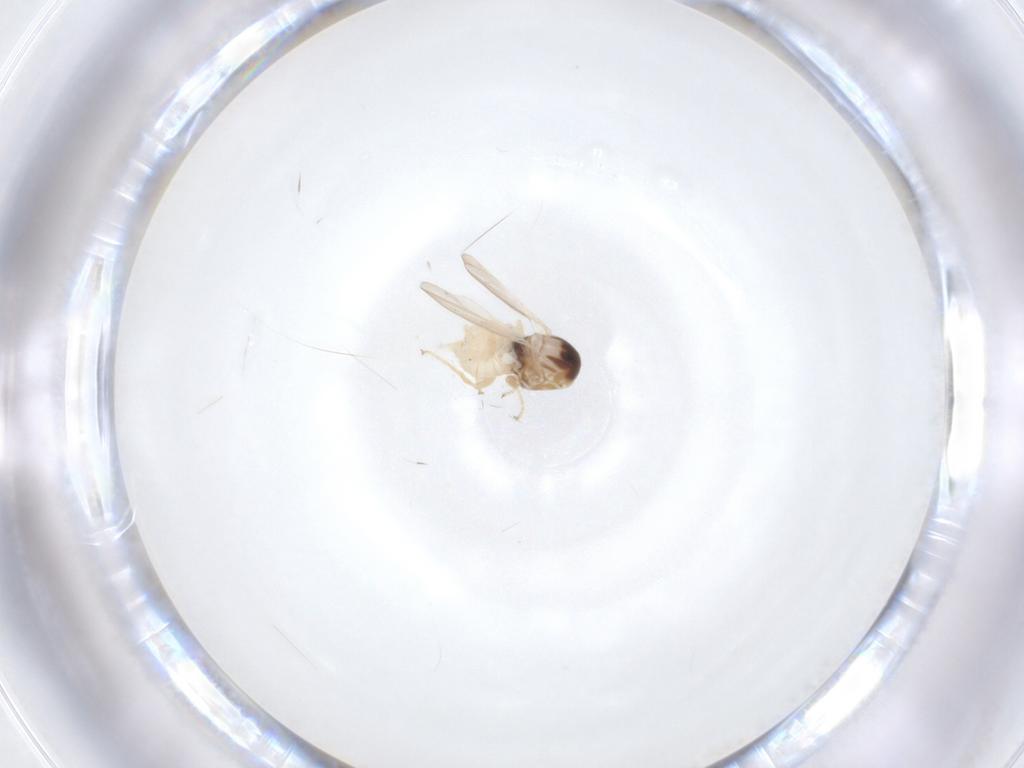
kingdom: Animalia
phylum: Arthropoda
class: Insecta
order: Diptera
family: Chloropidae
